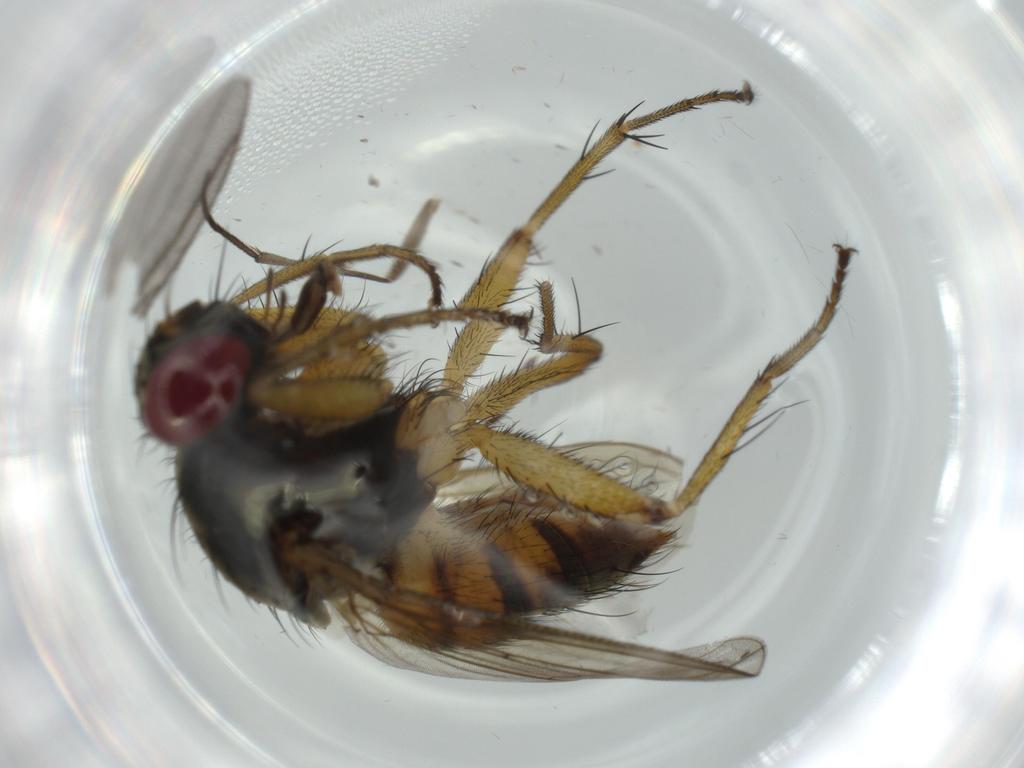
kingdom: Animalia
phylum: Arthropoda
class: Insecta
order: Diptera
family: Muscidae
